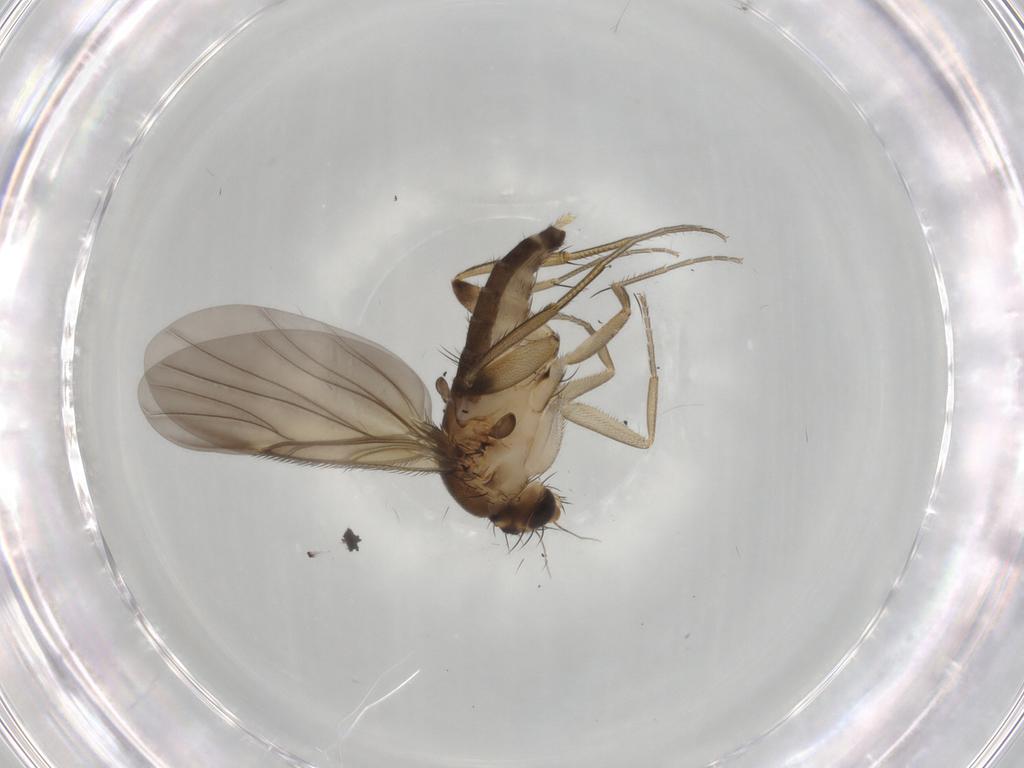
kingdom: Animalia
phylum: Arthropoda
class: Insecta
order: Diptera
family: Phoridae
